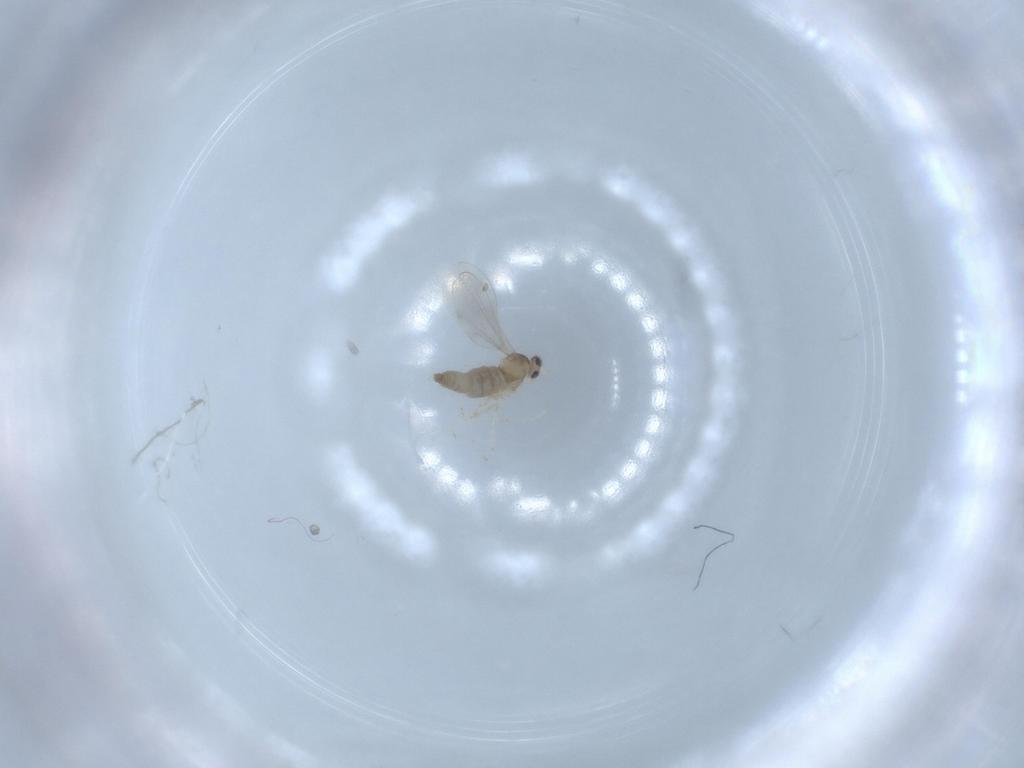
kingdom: Animalia
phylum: Arthropoda
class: Insecta
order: Diptera
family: Cecidomyiidae
